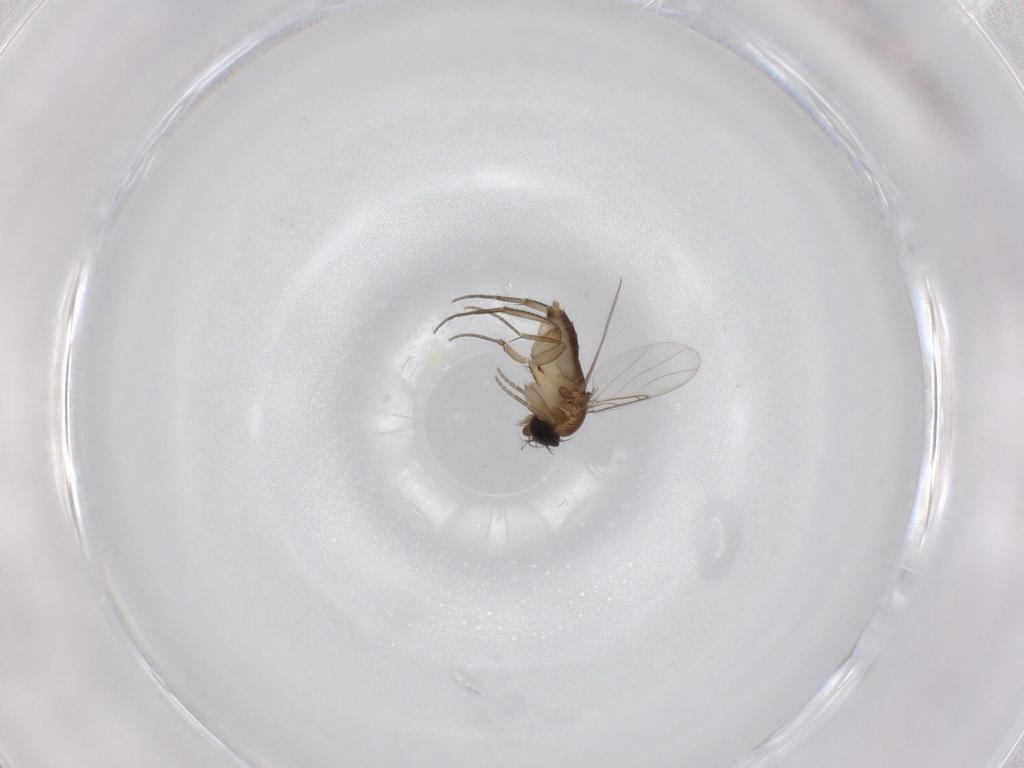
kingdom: Animalia
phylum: Arthropoda
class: Insecta
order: Diptera
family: Phoridae
